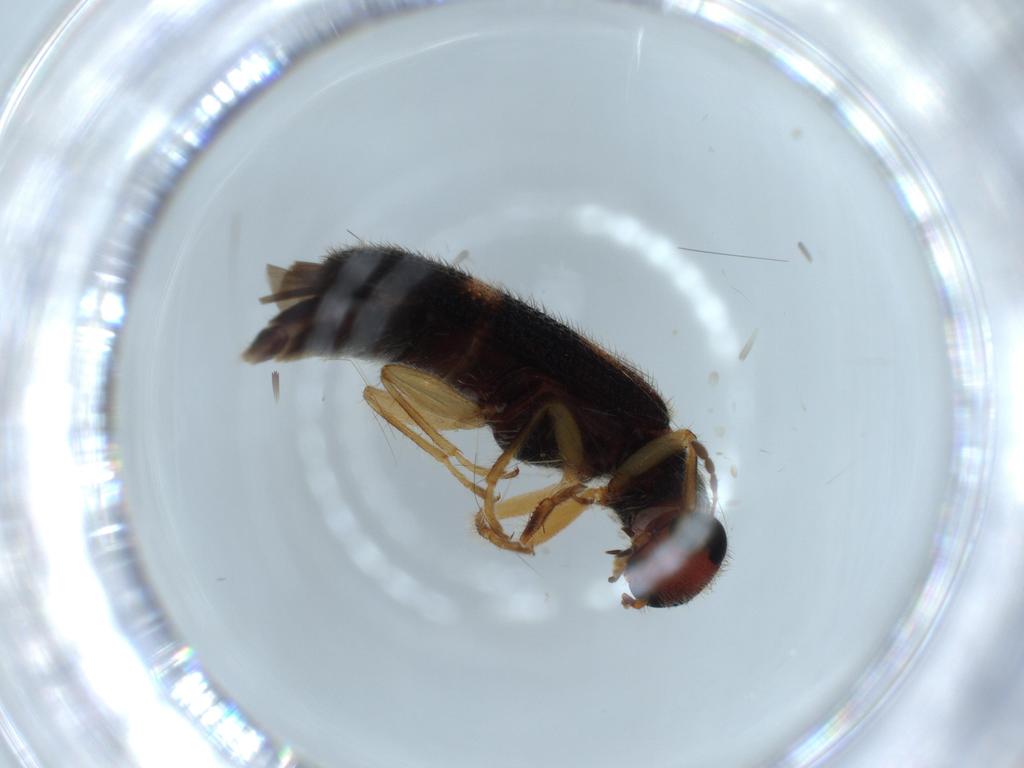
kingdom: Animalia
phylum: Arthropoda
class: Insecta
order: Coleoptera
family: Cleridae
